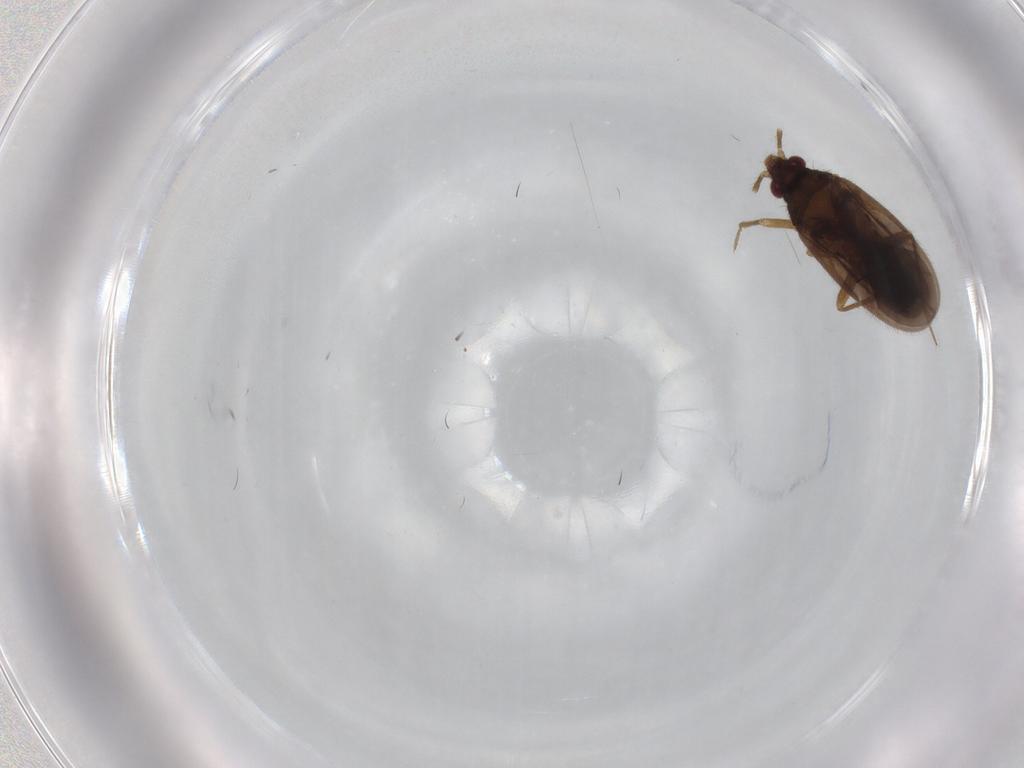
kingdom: Animalia
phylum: Arthropoda
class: Insecta
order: Hemiptera
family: Ceratocombidae
